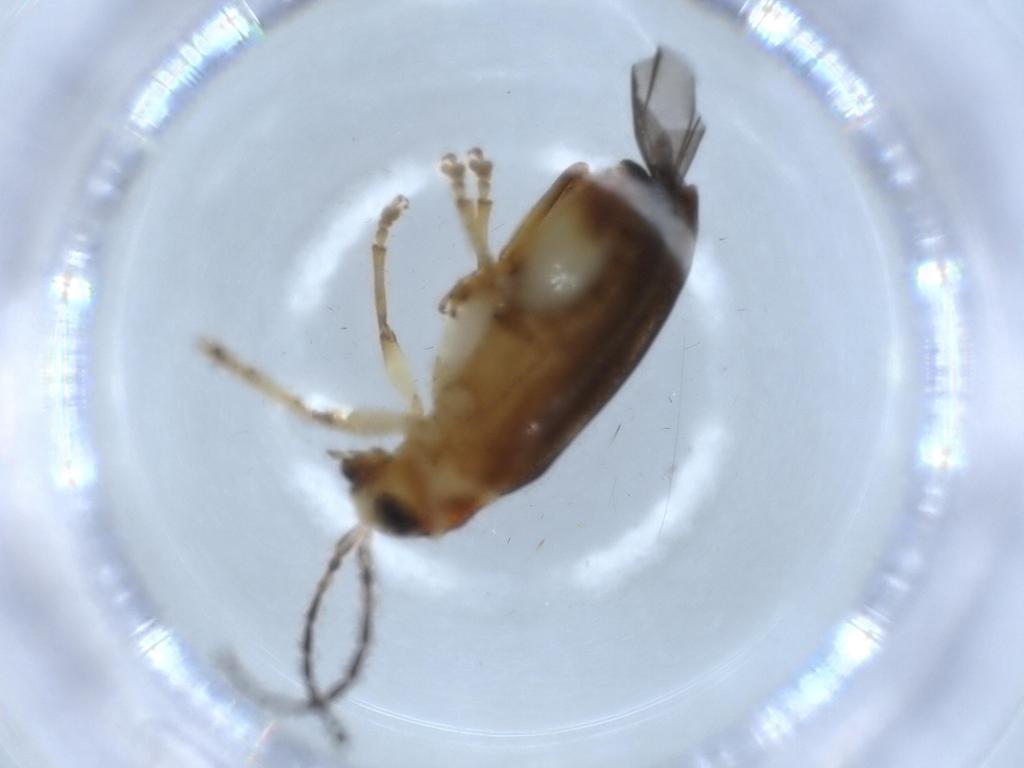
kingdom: Animalia
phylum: Arthropoda
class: Insecta
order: Coleoptera
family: Chrysomelidae
